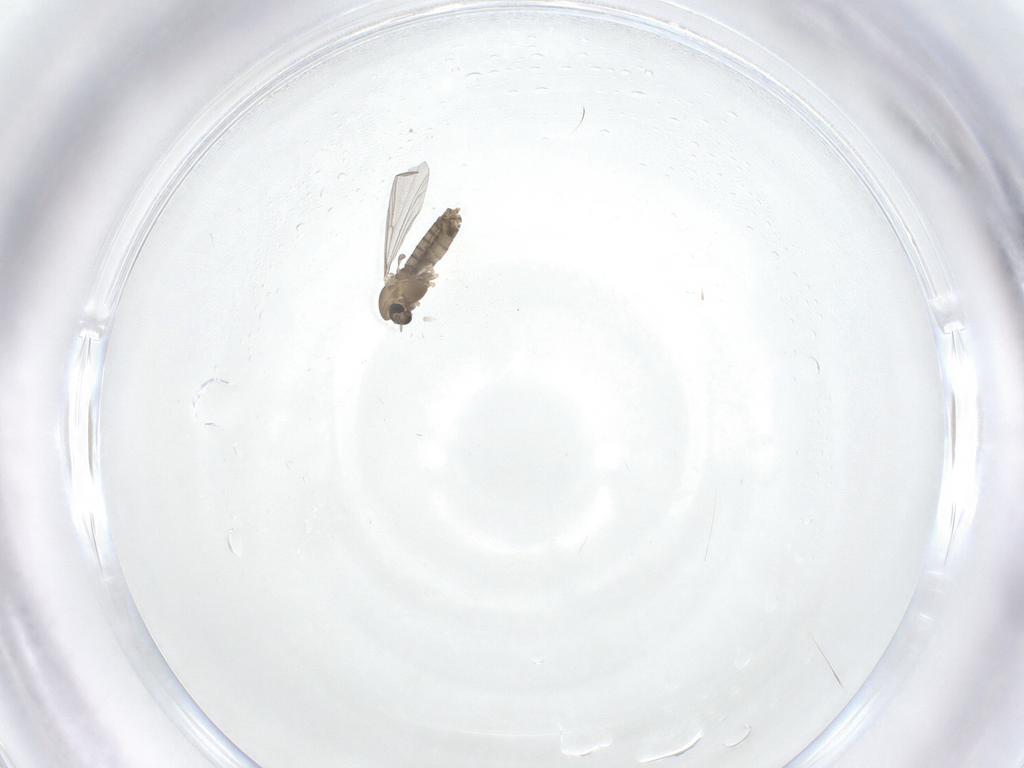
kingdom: Animalia
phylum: Arthropoda
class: Insecta
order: Diptera
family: Chironomidae
